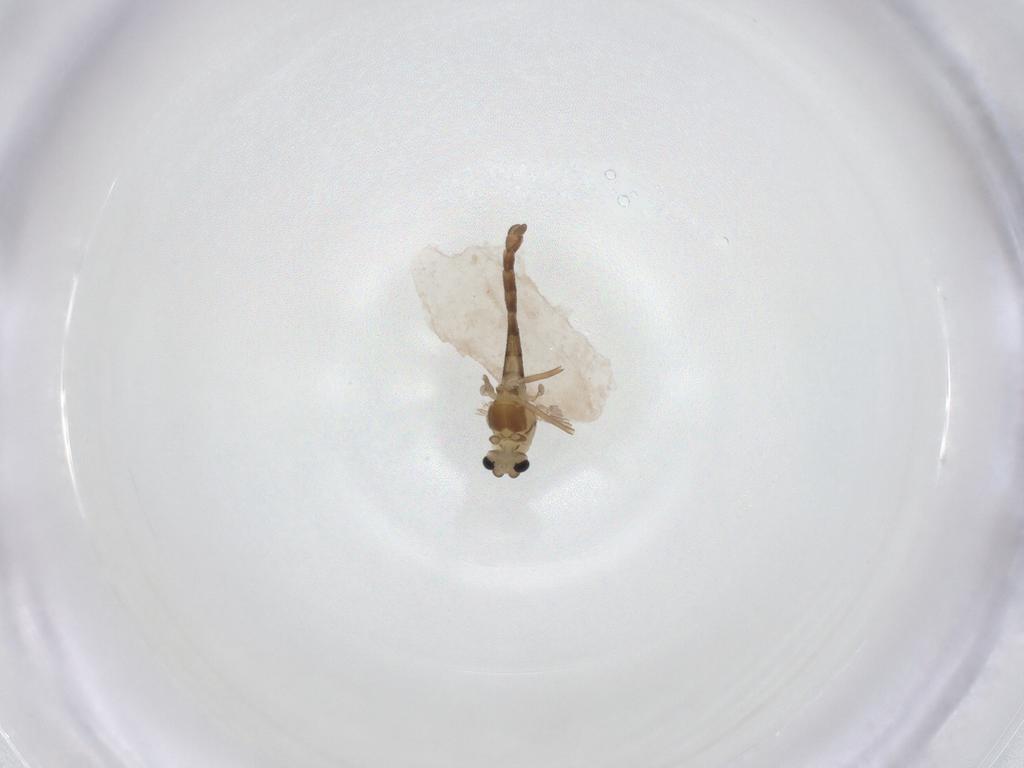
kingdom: Animalia
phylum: Arthropoda
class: Insecta
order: Diptera
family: Chironomidae
